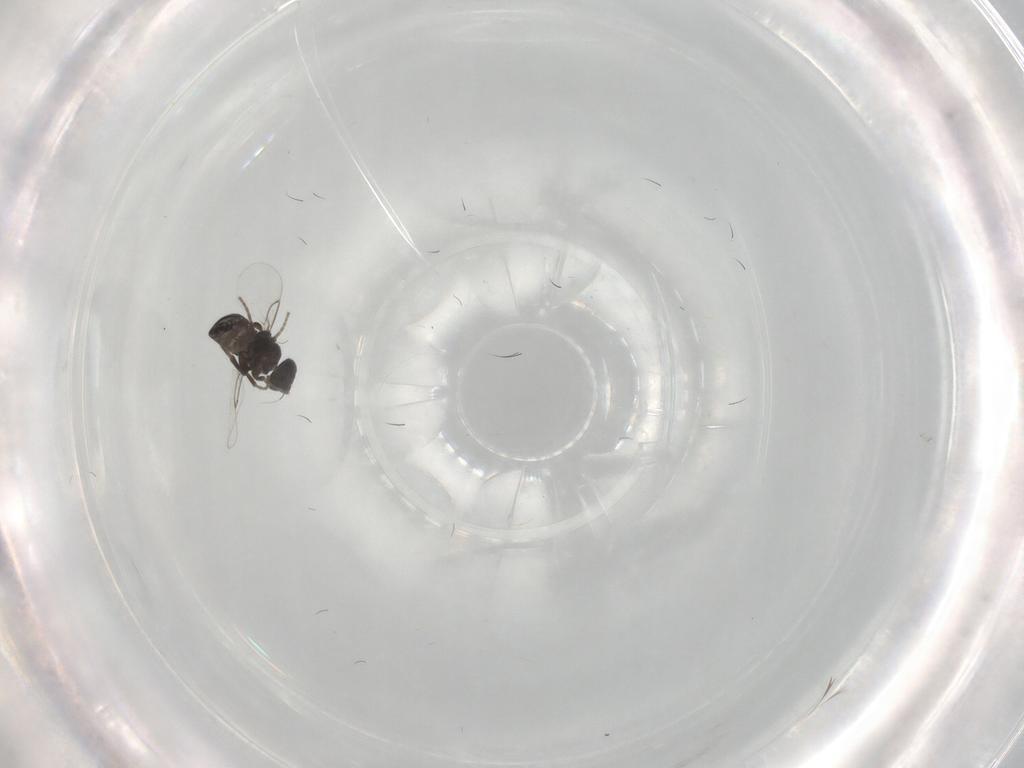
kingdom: Animalia
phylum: Arthropoda
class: Insecta
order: Diptera
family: Phoridae
